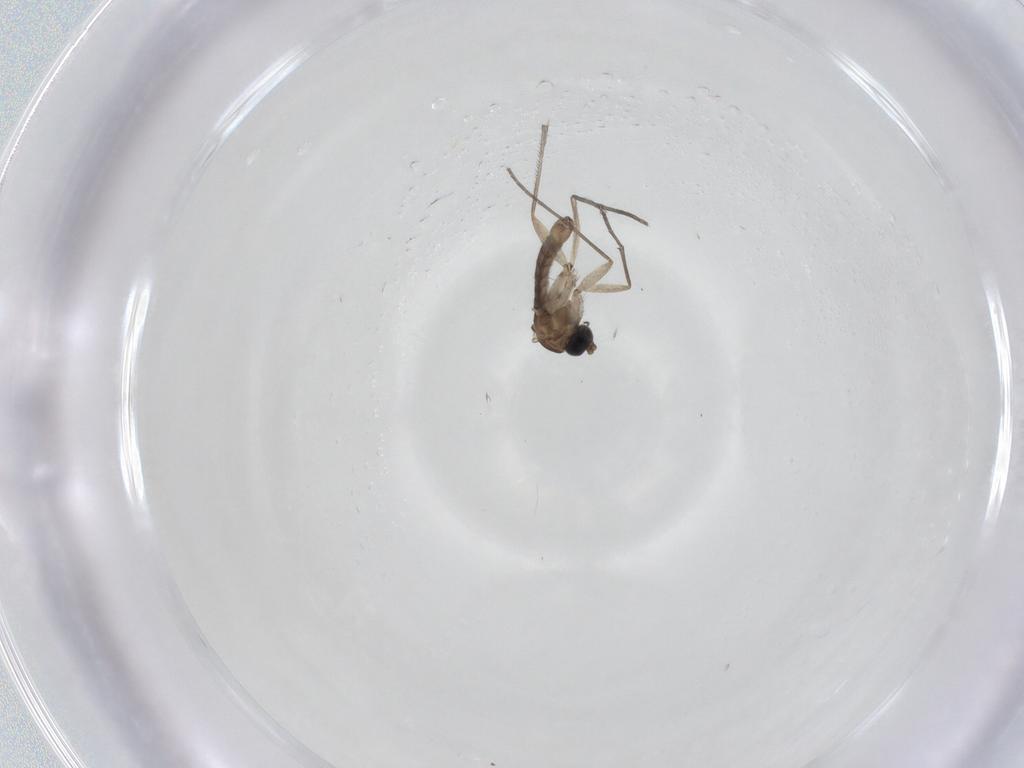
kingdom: Animalia
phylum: Arthropoda
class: Insecta
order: Diptera
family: Sciaridae
